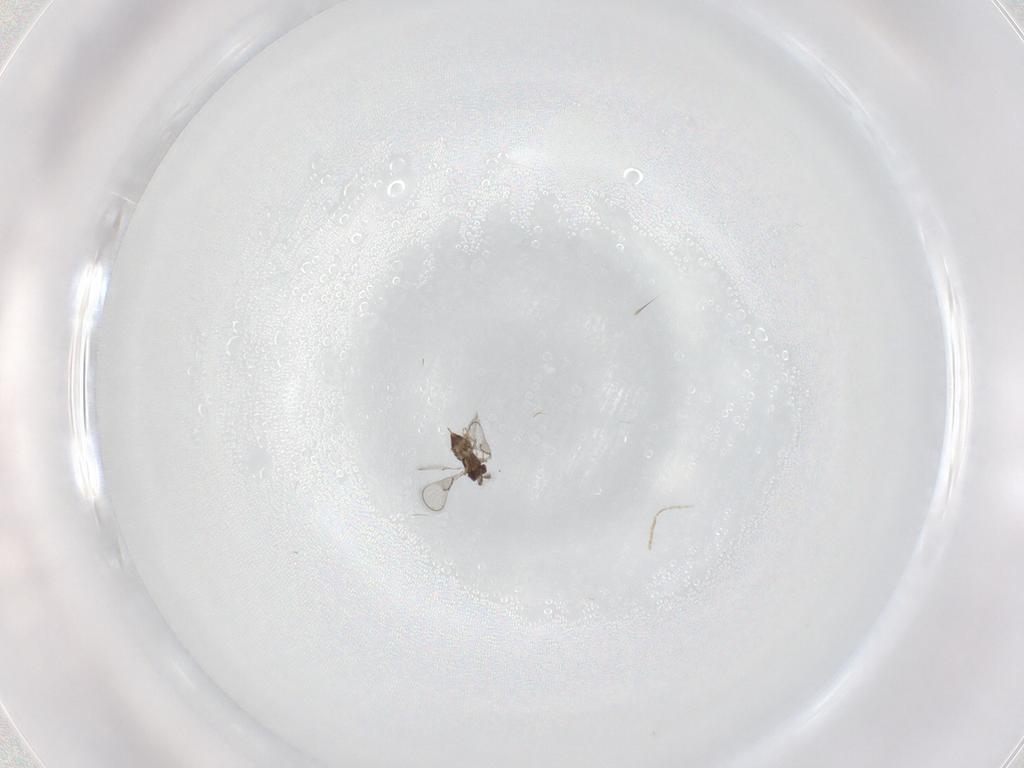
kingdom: Animalia
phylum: Arthropoda
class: Insecta
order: Hymenoptera
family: Trichogrammatidae
